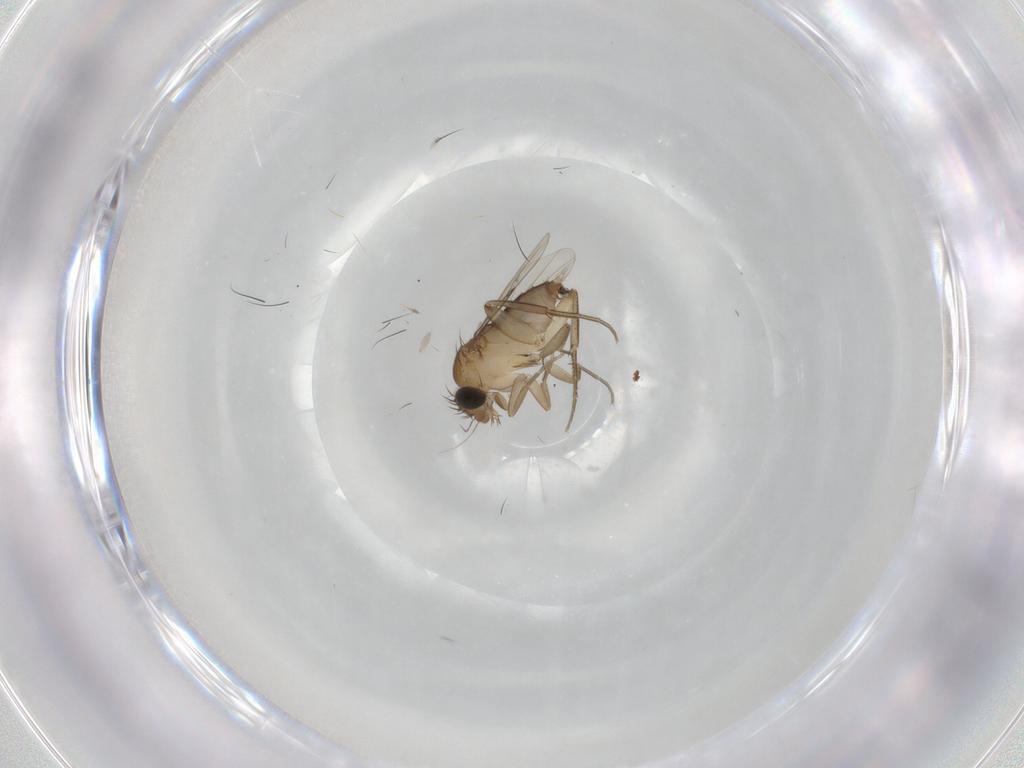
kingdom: Animalia
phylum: Arthropoda
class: Insecta
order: Diptera
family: Phoridae
